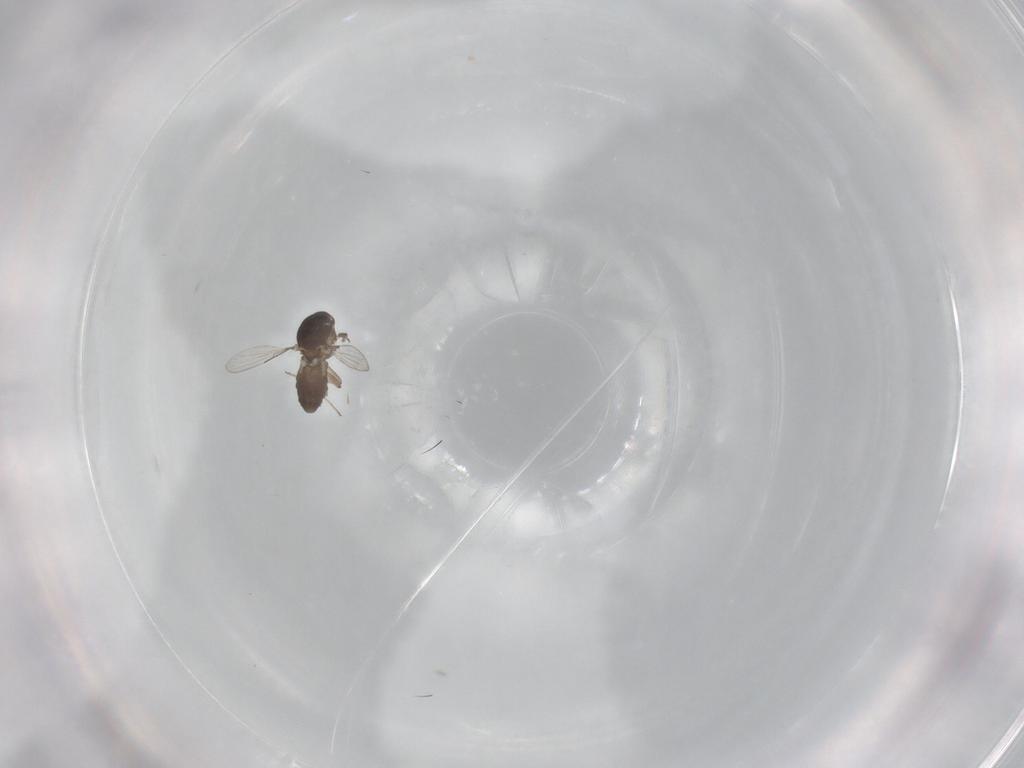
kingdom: Animalia
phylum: Arthropoda
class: Insecta
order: Diptera
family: Ceratopogonidae
